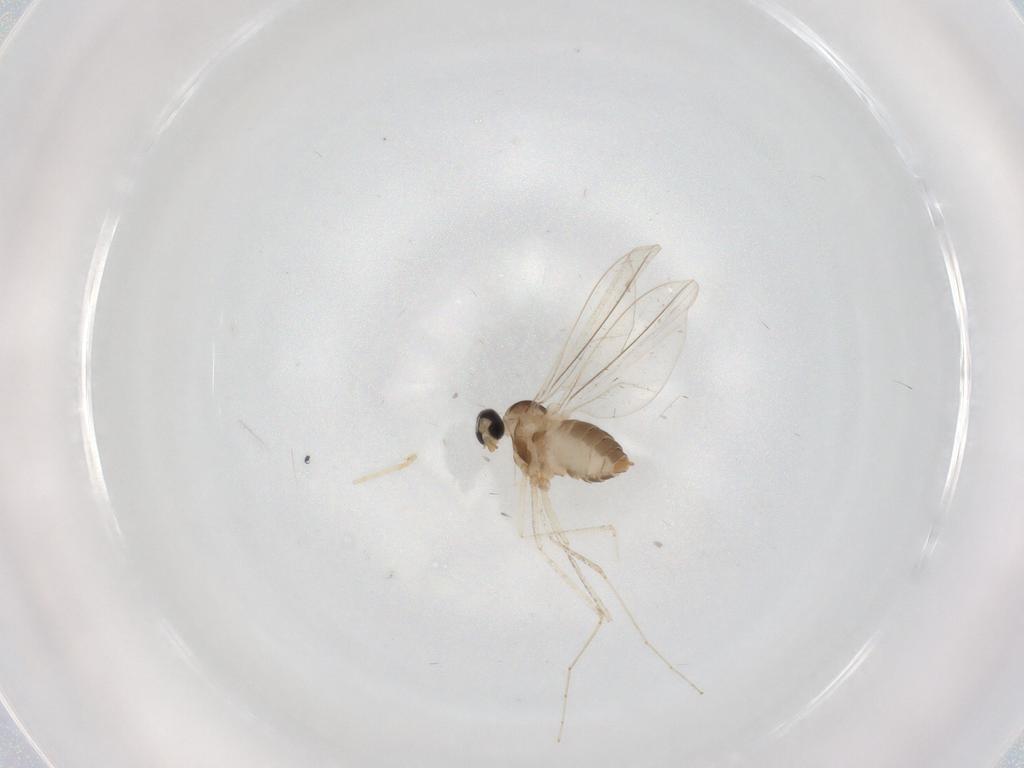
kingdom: Animalia
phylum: Arthropoda
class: Insecta
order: Diptera
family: Cecidomyiidae
